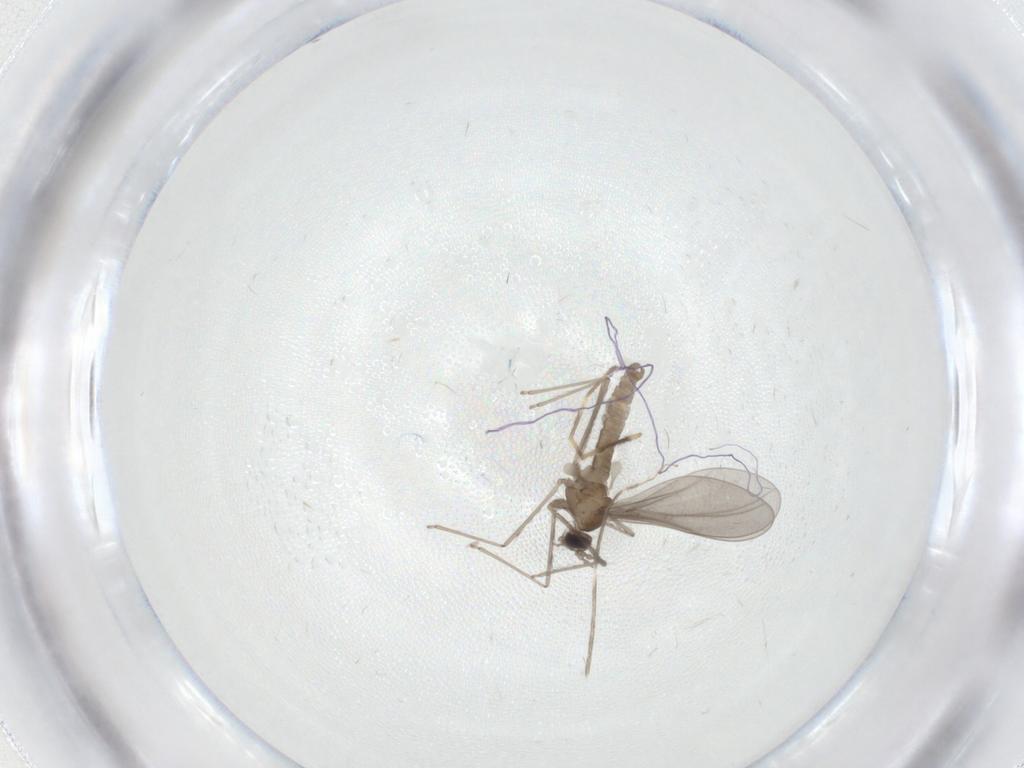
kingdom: Animalia
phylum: Arthropoda
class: Insecta
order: Diptera
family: Cecidomyiidae
